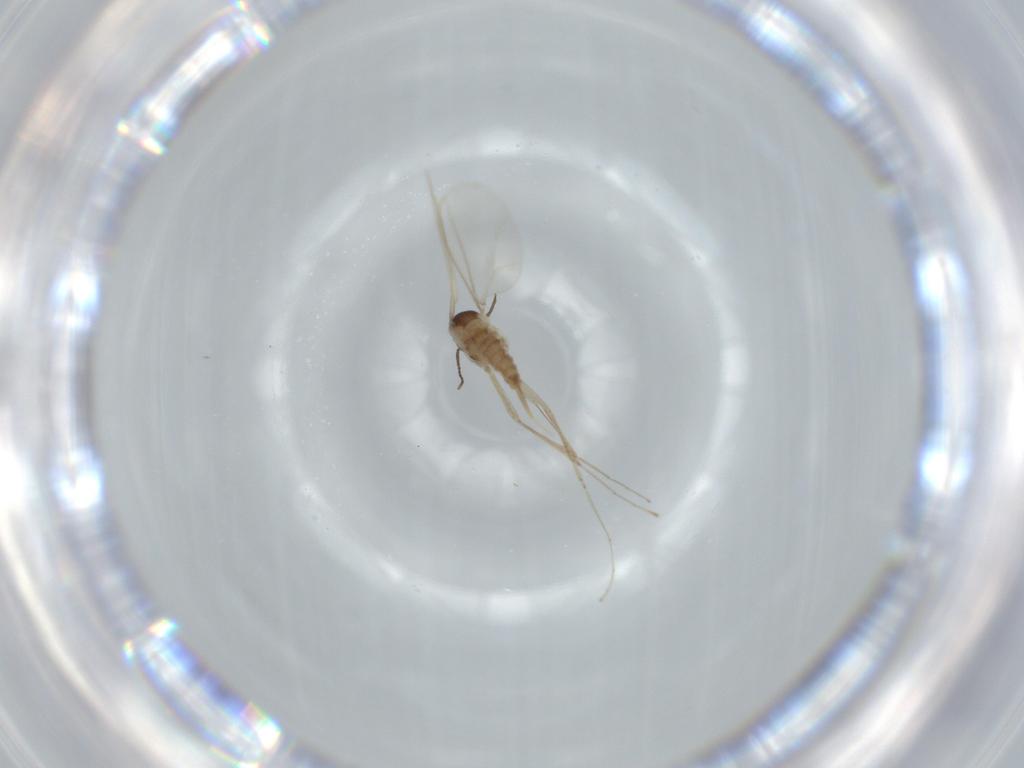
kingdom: Animalia
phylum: Arthropoda
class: Insecta
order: Diptera
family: Cecidomyiidae
